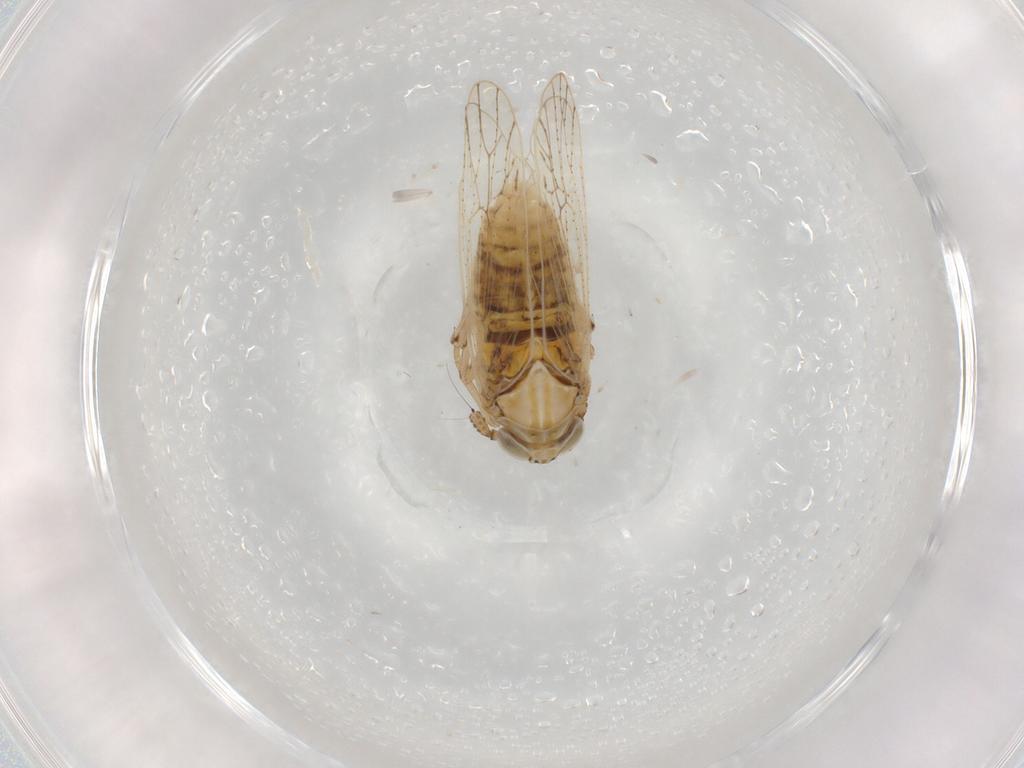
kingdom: Animalia
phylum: Arthropoda
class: Insecta
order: Hemiptera
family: Delphacidae
